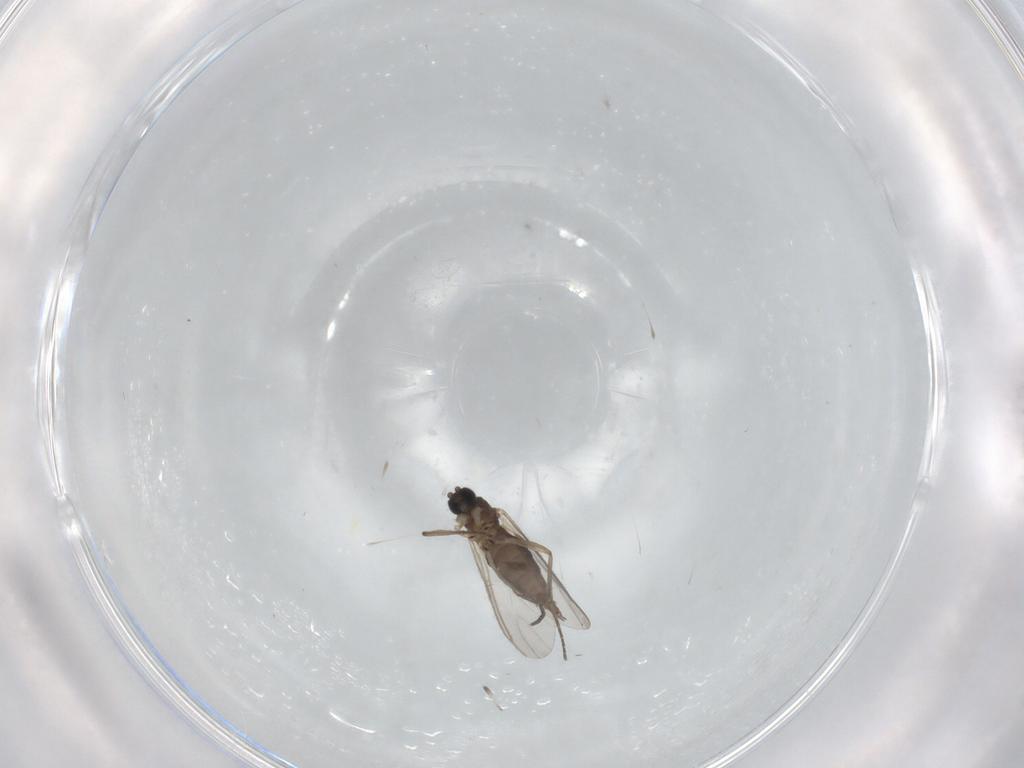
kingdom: Animalia
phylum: Arthropoda
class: Insecta
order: Diptera
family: Sciaridae
